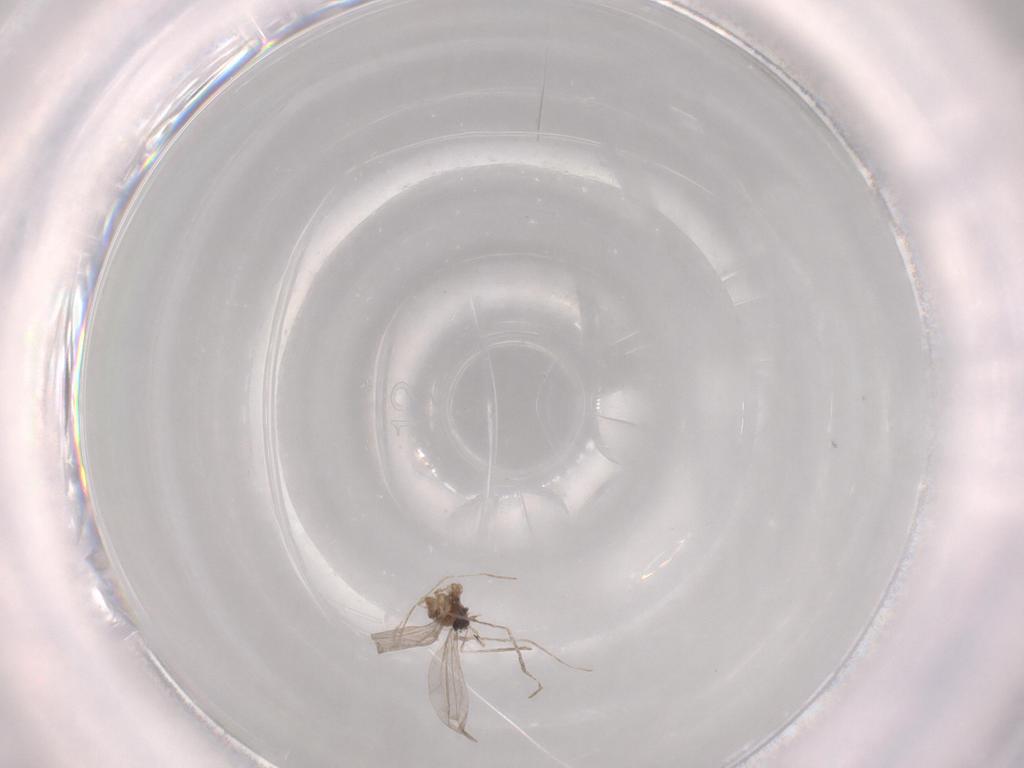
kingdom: Animalia
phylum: Arthropoda
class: Insecta
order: Diptera
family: Cecidomyiidae
